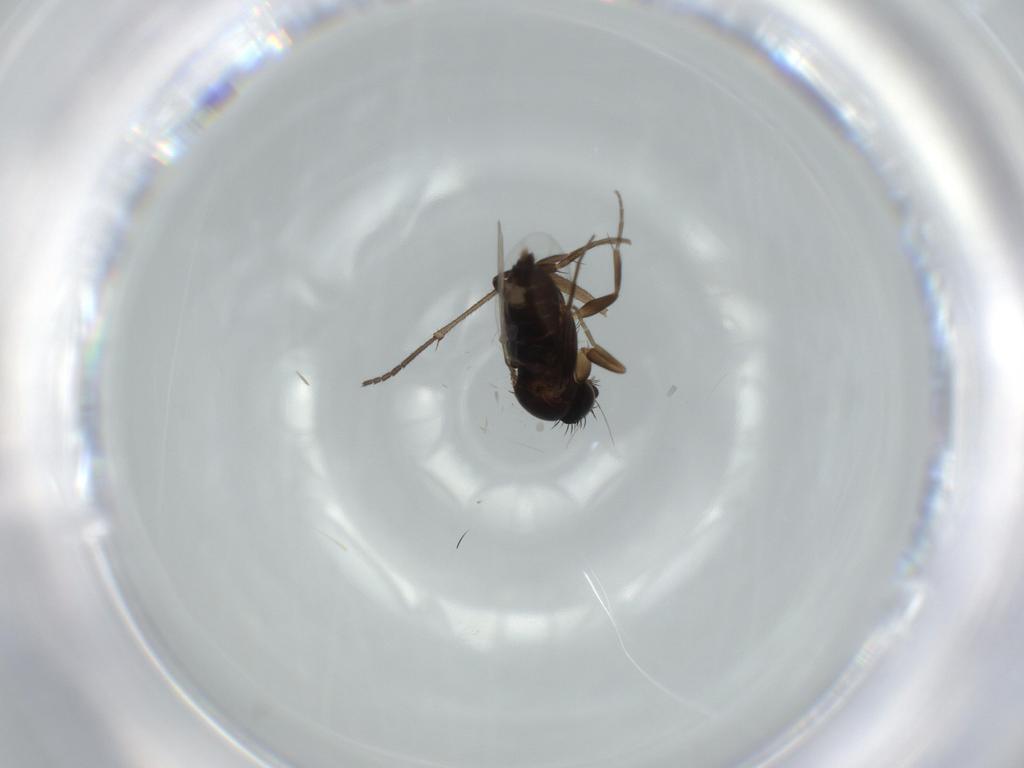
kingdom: Animalia
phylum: Arthropoda
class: Insecta
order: Diptera
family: Phoridae
